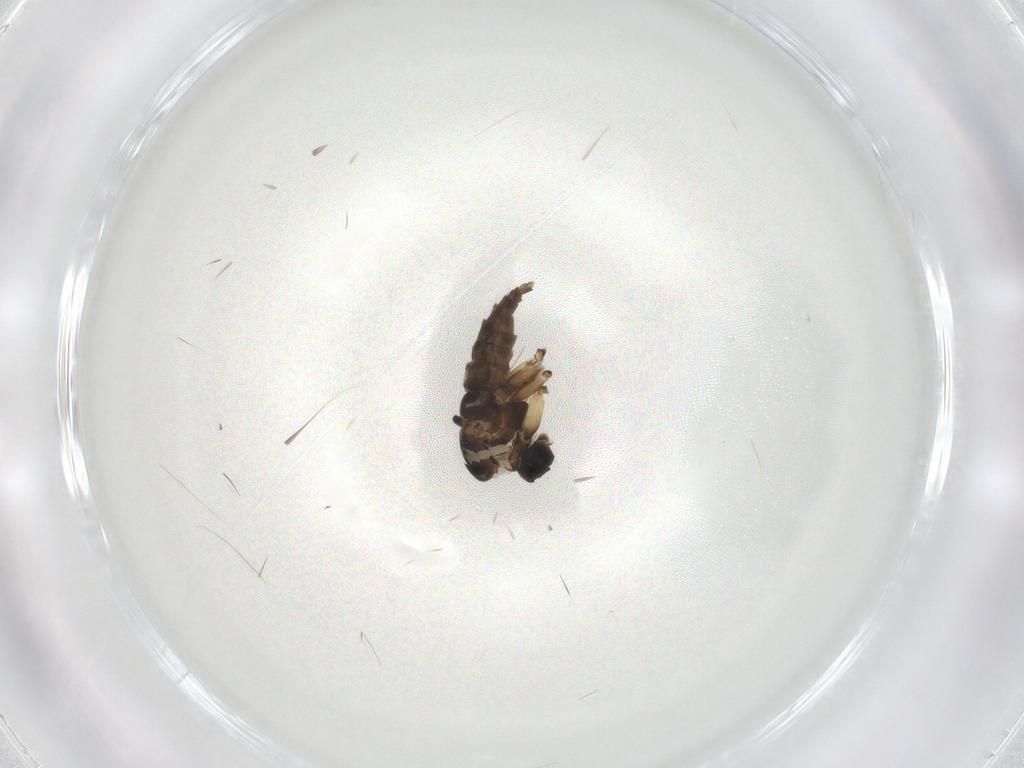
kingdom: Animalia
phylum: Arthropoda
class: Insecta
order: Diptera
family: Sciaridae
